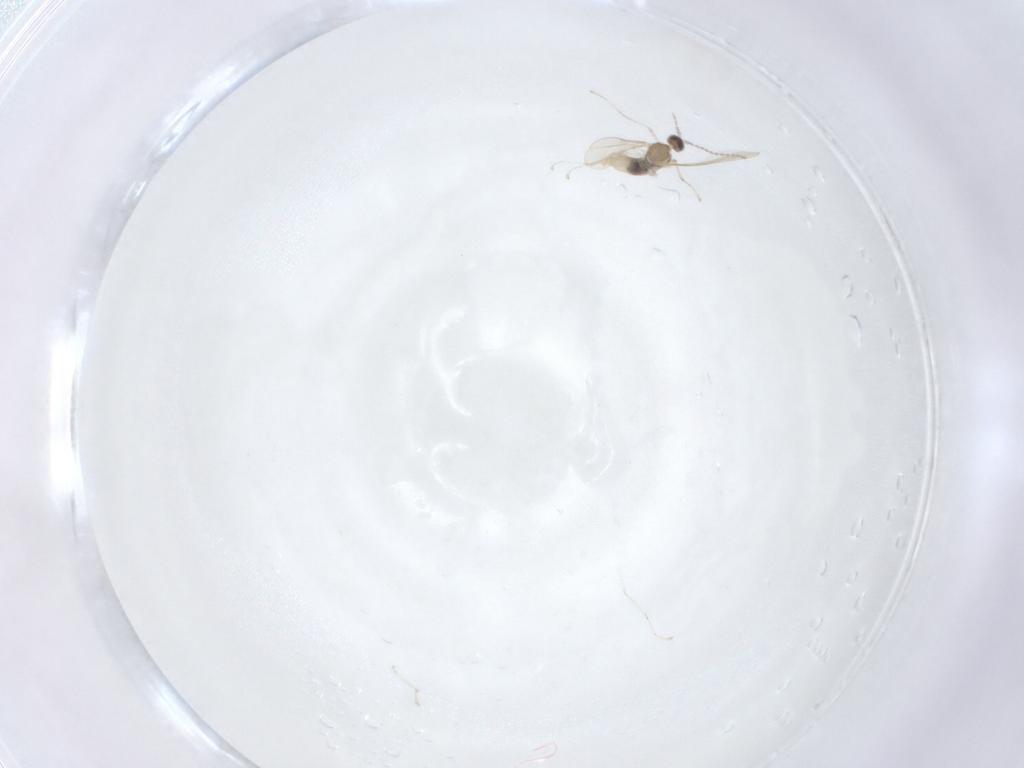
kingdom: Animalia
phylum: Arthropoda
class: Insecta
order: Diptera
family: Cecidomyiidae
